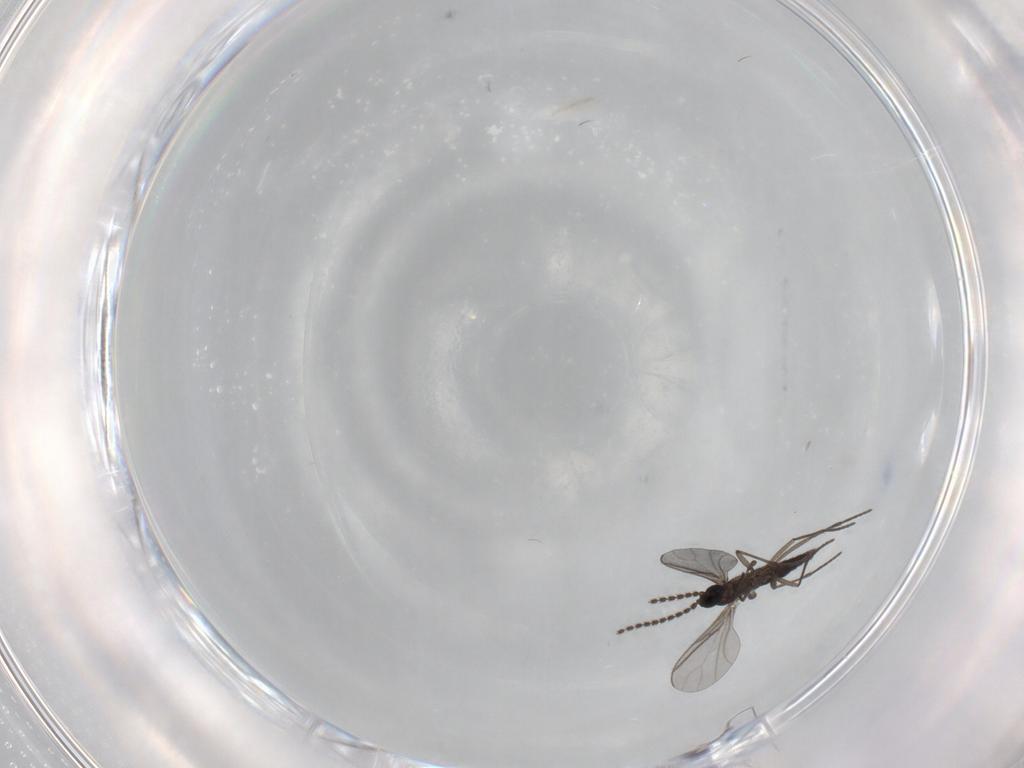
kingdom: Animalia
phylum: Arthropoda
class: Insecta
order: Diptera
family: Sciaridae
